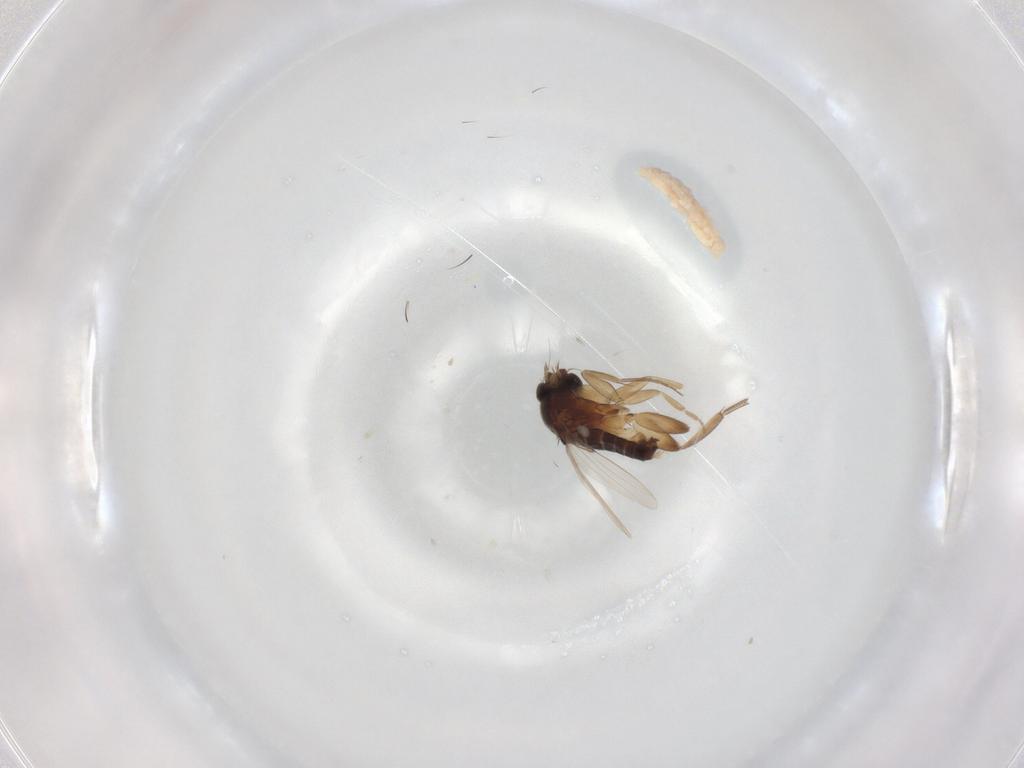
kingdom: Animalia
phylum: Arthropoda
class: Insecta
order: Diptera
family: Phoridae
